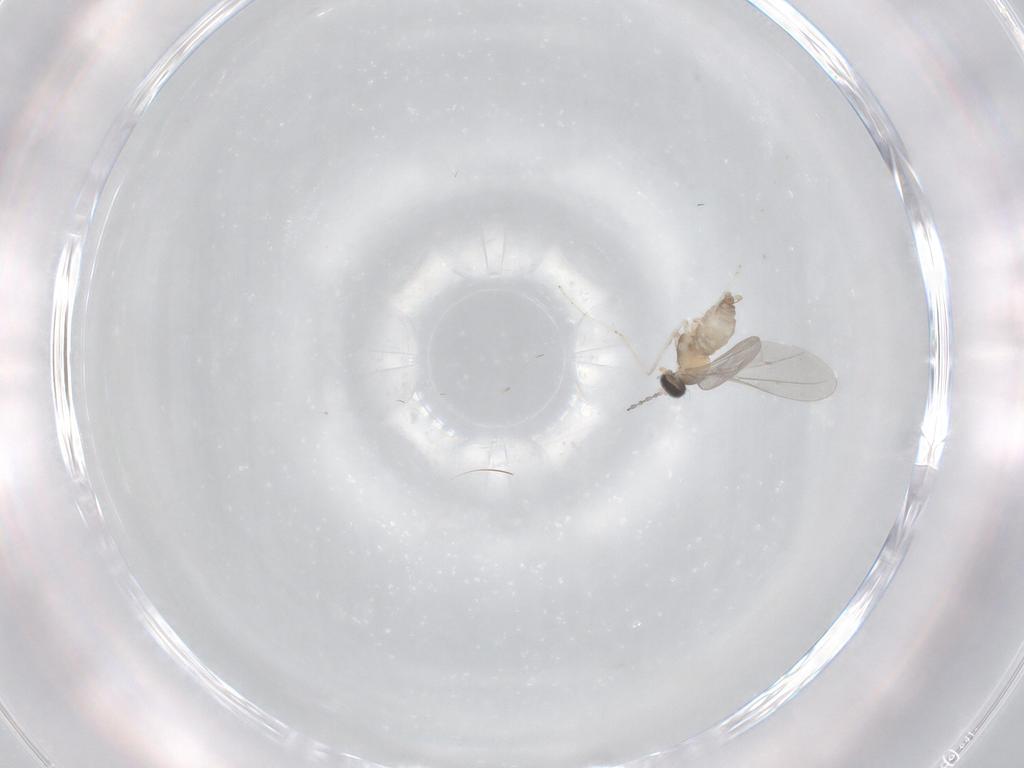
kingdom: Animalia
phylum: Arthropoda
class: Insecta
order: Diptera
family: Cecidomyiidae
